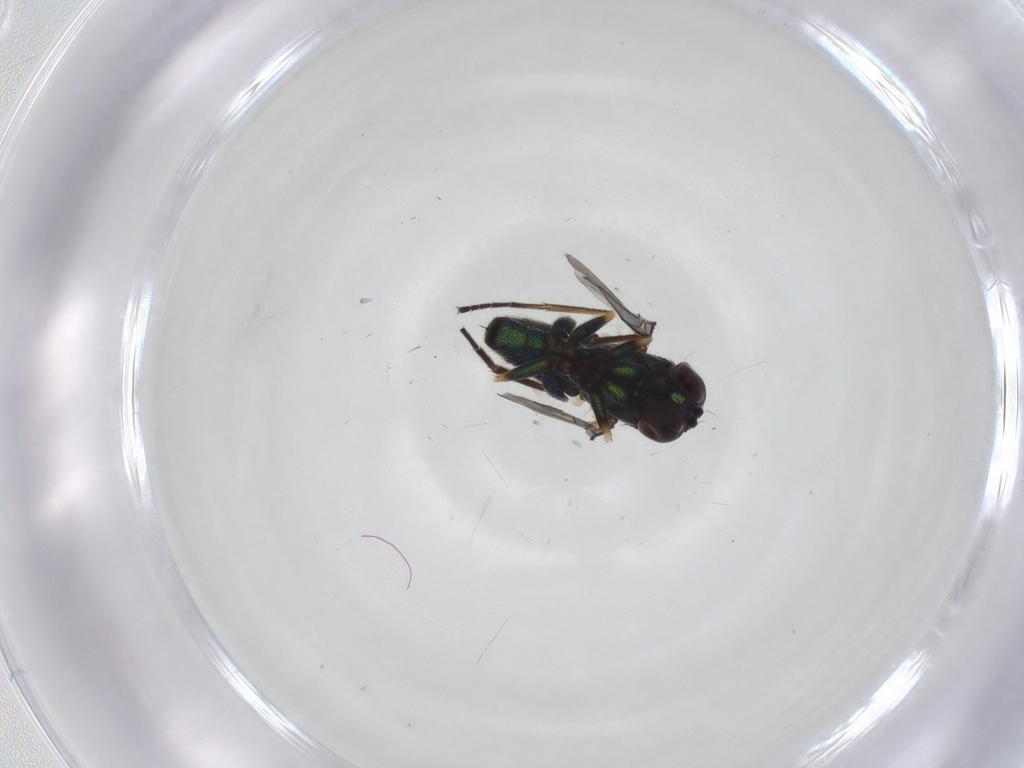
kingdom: Animalia
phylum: Arthropoda
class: Insecta
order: Diptera
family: Dolichopodidae
